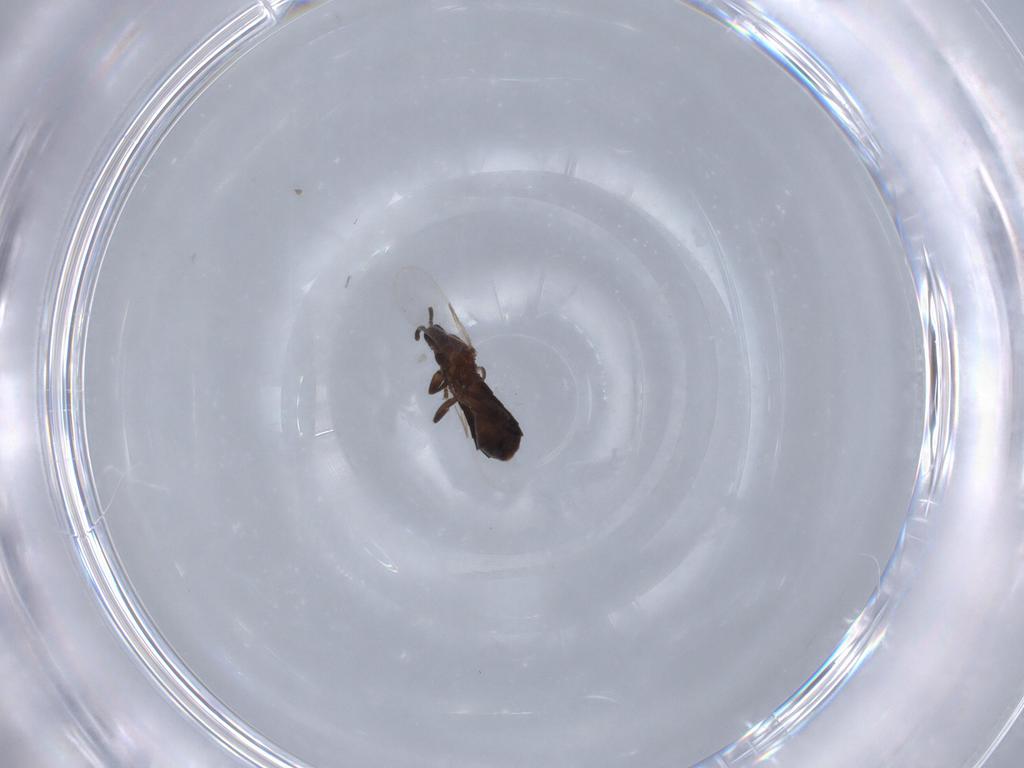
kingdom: Animalia
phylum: Arthropoda
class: Insecta
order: Diptera
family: Scatopsidae
